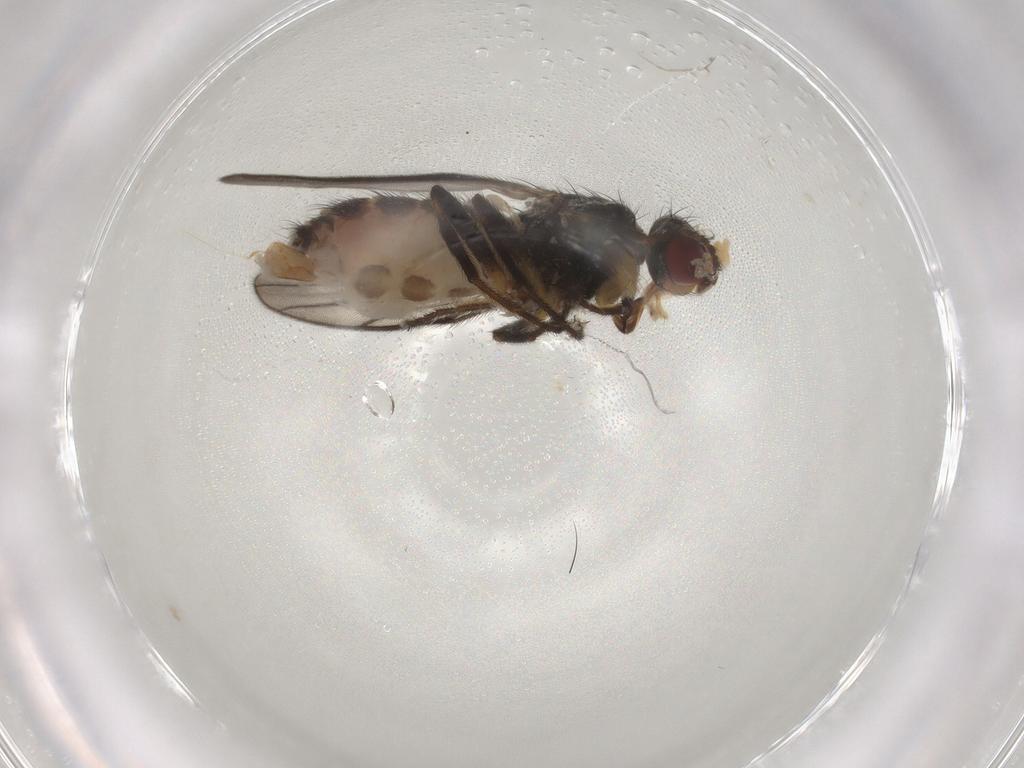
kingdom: Animalia
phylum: Arthropoda
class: Insecta
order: Diptera
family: Chloropidae
